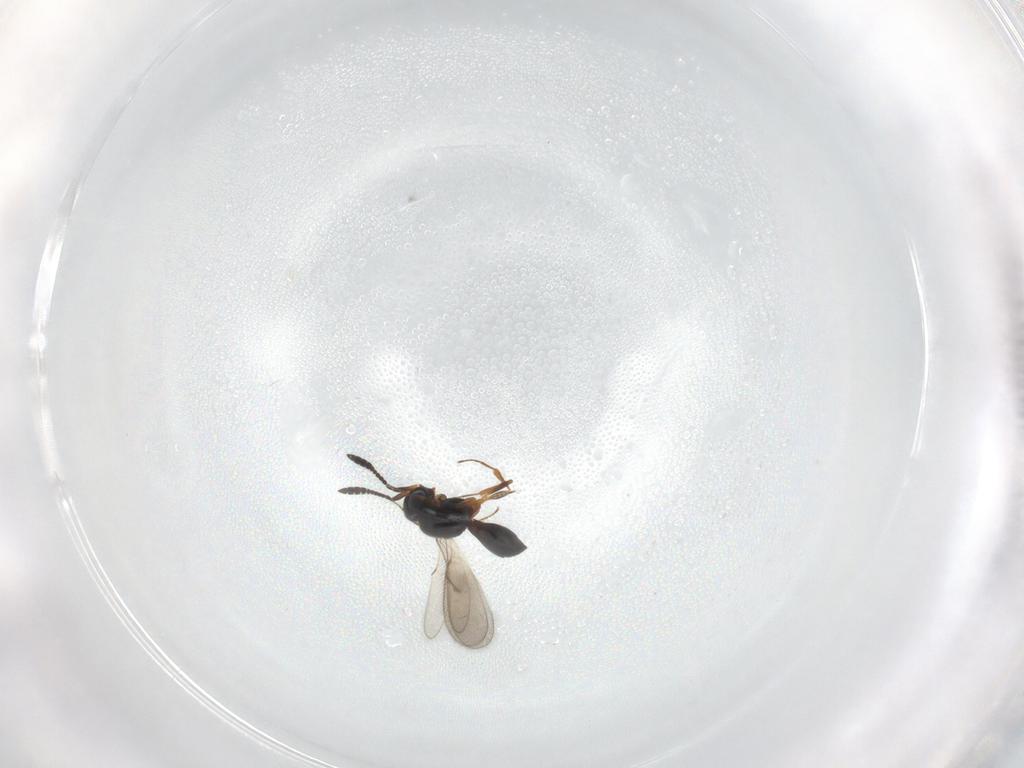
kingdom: Animalia
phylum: Arthropoda
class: Insecta
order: Hymenoptera
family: Scelionidae
